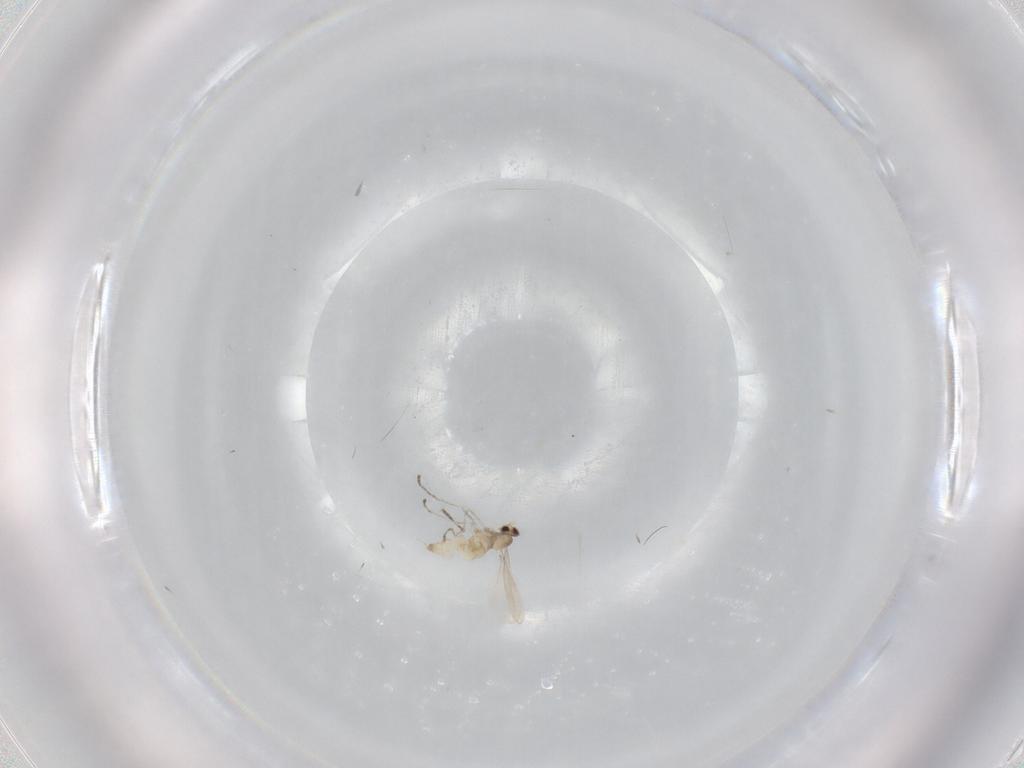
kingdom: Animalia
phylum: Arthropoda
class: Insecta
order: Diptera
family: Cecidomyiidae
